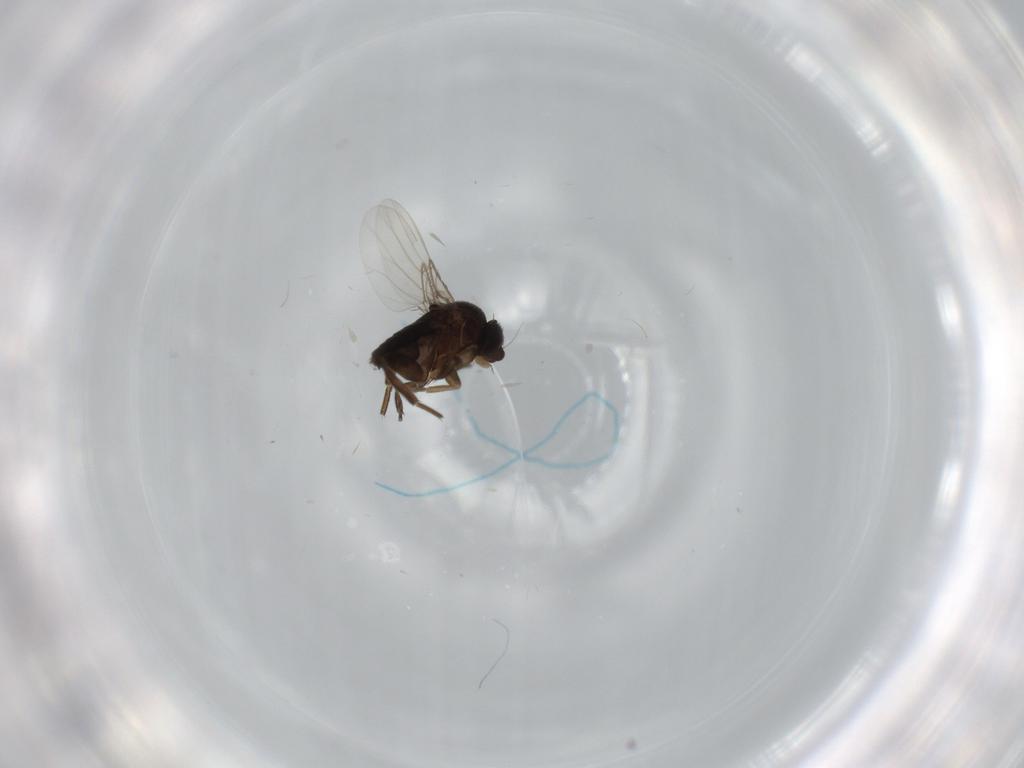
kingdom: Animalia
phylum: Arthropoda
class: Insecta
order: Diptera
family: Phoridae
